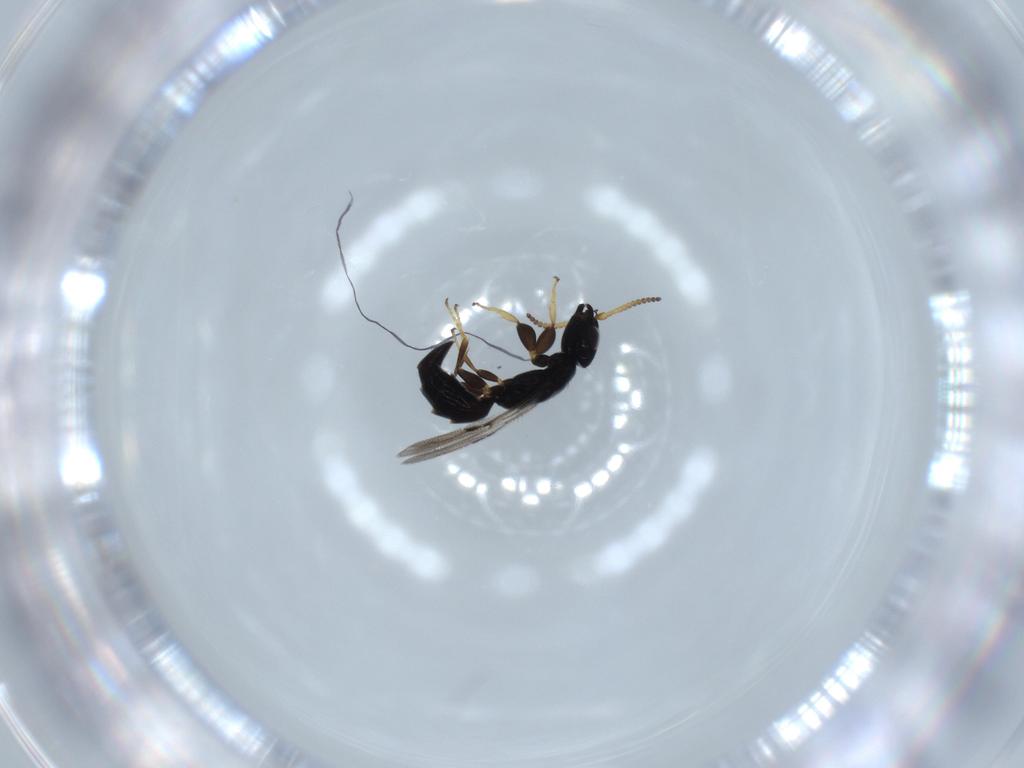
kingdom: Animalia
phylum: Arthropoda
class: Insecta
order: Hymenoptera
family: Bethylidae
